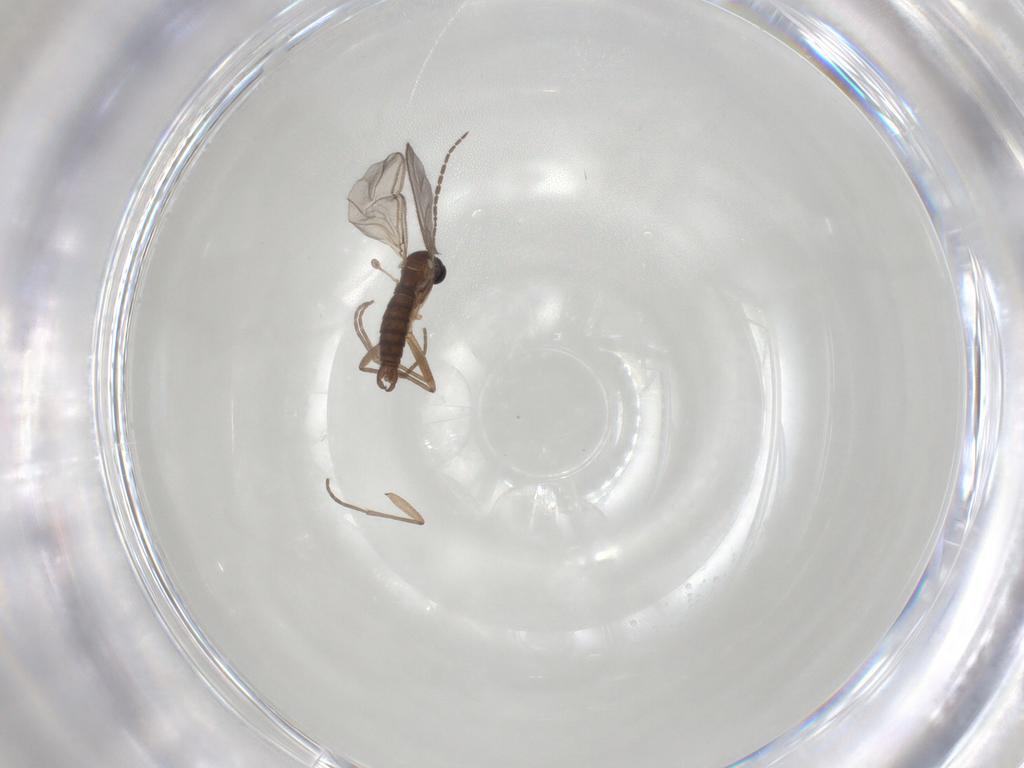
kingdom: Animalia
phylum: Arthropoda
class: Insecta
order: Diptera
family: Sciaridae
